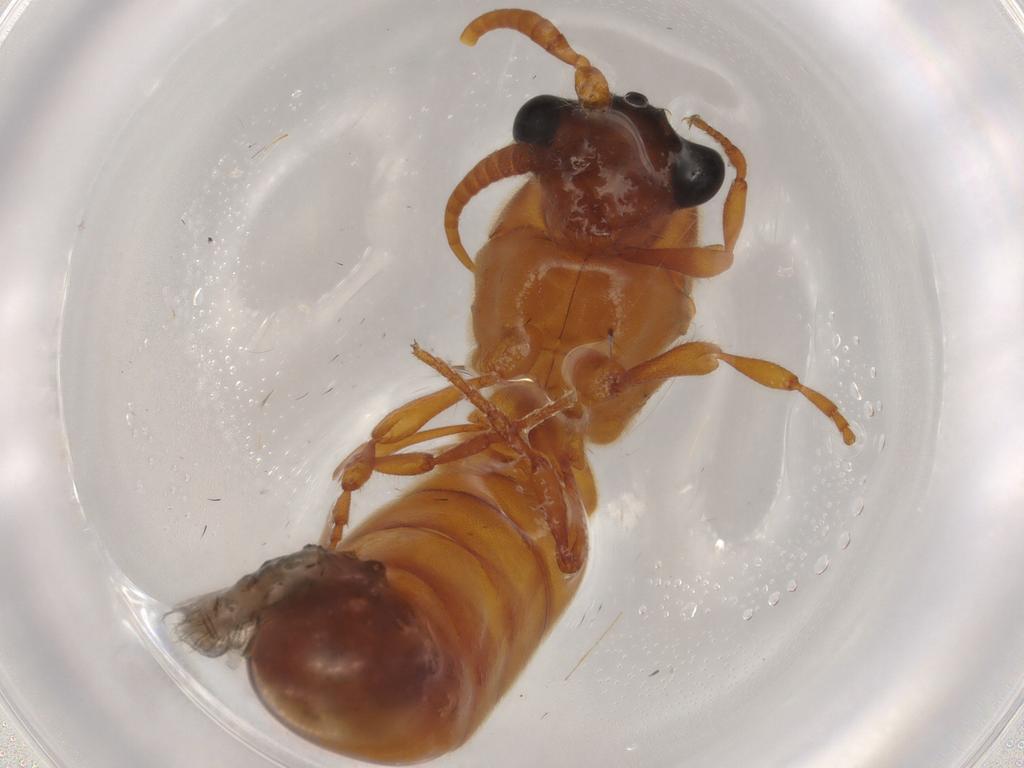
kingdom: Animalia
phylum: Arthropoda
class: Insecta
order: Hymenoptera
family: Formicidae
